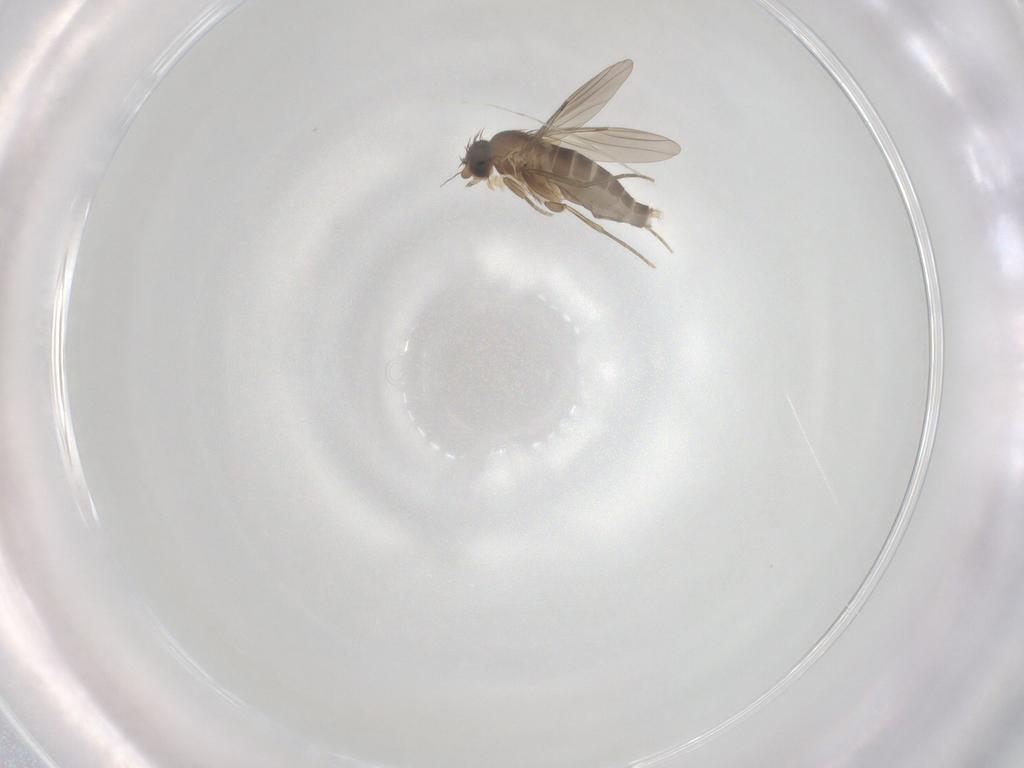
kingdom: Animalia
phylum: Arthropoda
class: Insecta
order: Diptera
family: Phoridae
